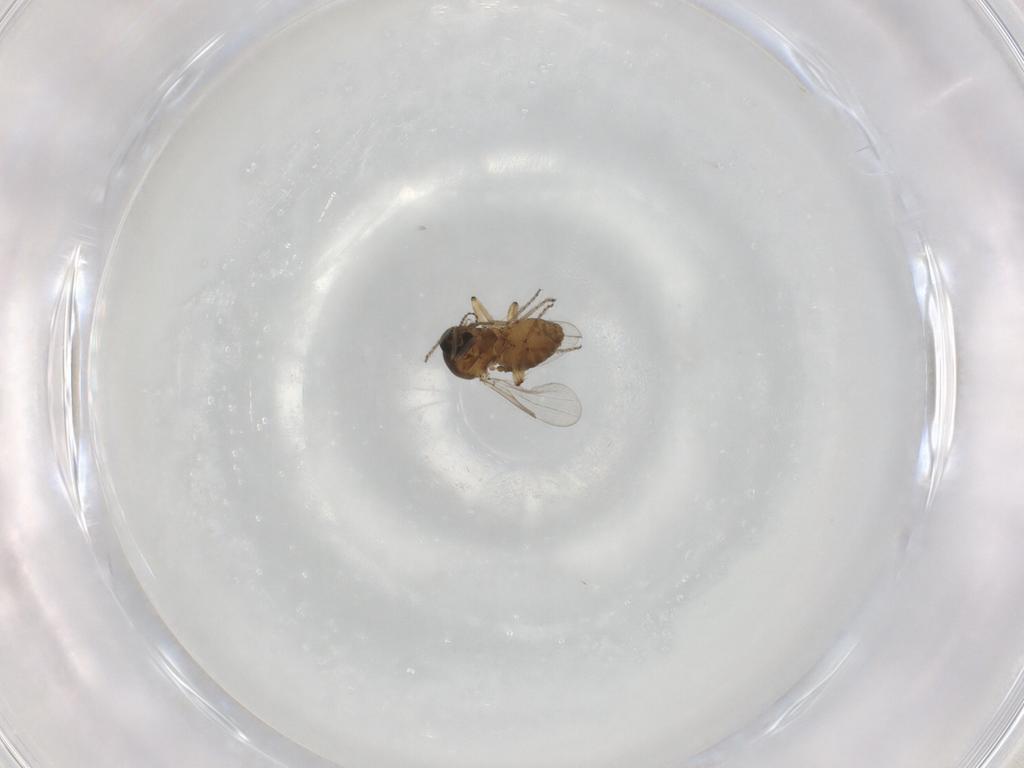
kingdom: Animalia
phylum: Arthropoda
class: Insecta
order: Diptera
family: Ceratopogonidae
